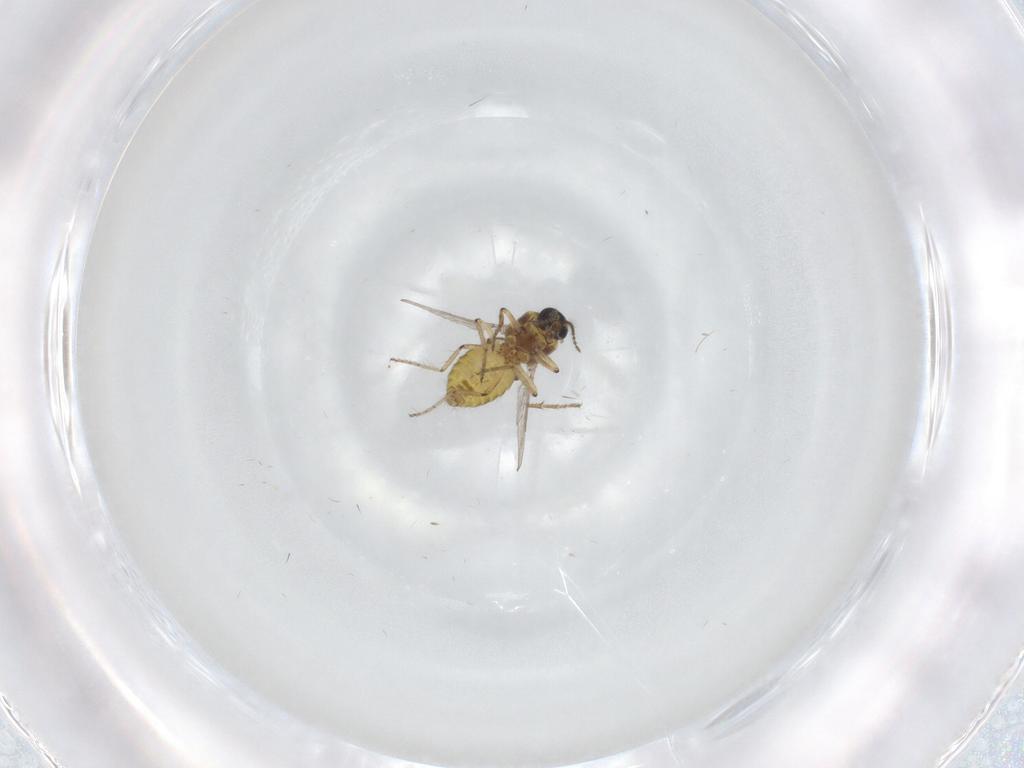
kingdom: Animalia
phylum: Arthropoda
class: Insecta
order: Diptera
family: Ceratopogonidae
